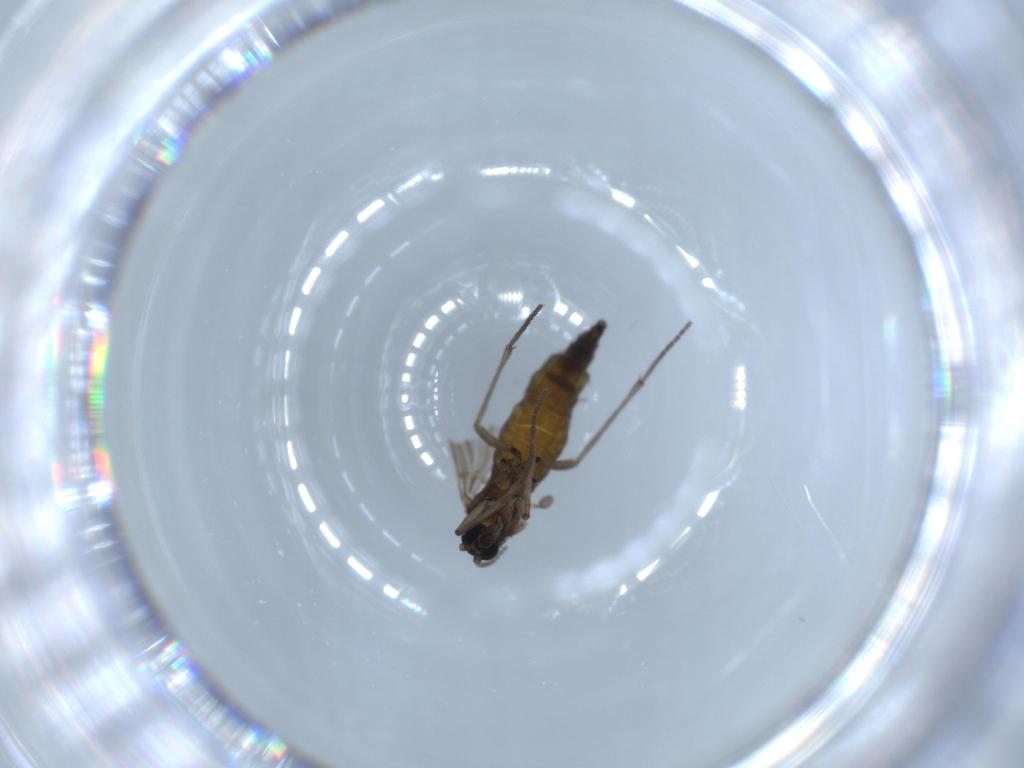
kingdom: Animalia
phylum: Arthropoda
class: Insecta
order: Diptera
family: Sciaridae
